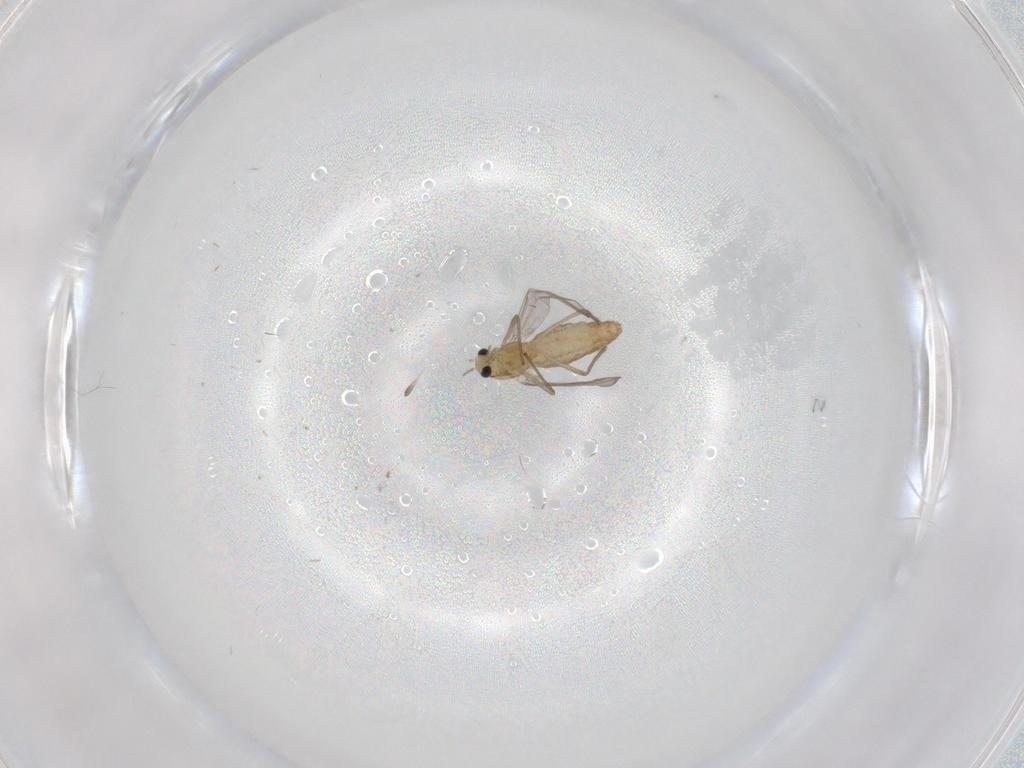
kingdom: Animalia
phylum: Arthropoda
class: Insecta
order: Diptera
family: Chironomidae
